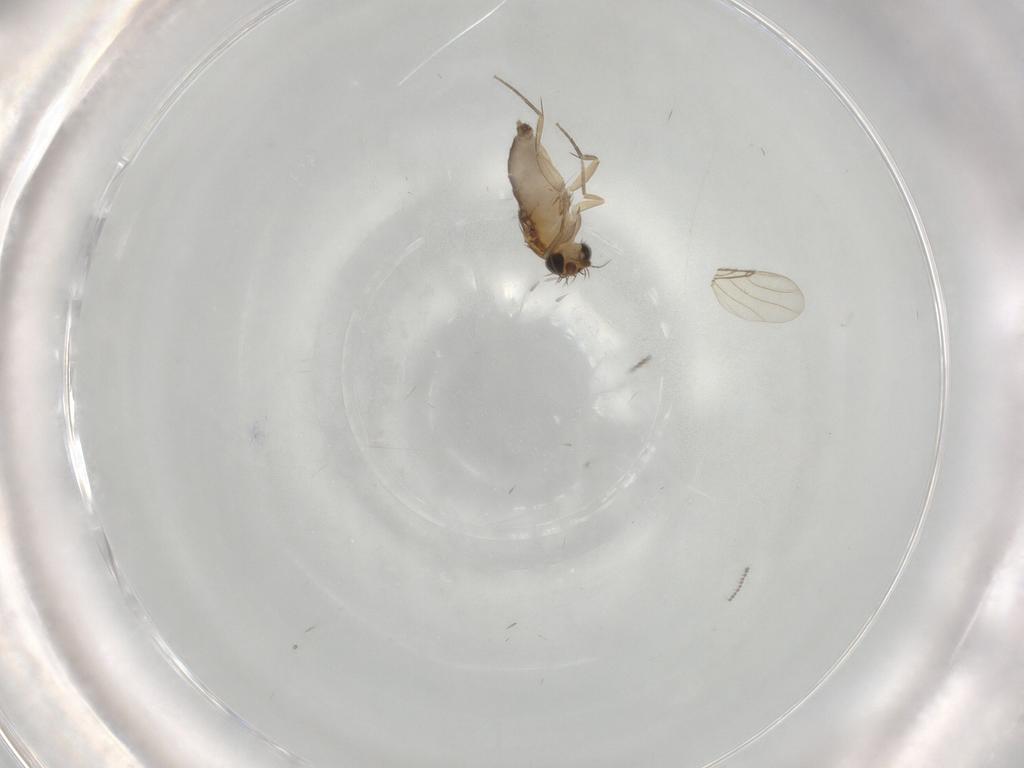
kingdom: Animalia
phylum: Arthropoda
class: Insecta
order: Diptera
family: Phoridae
